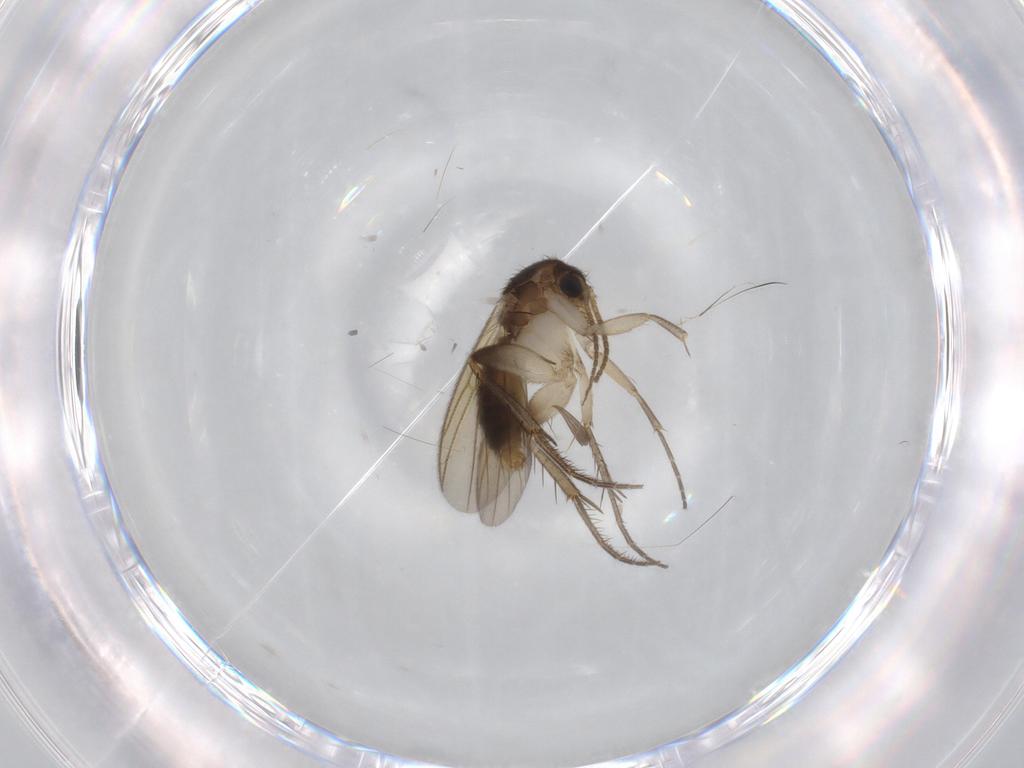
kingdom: Animalia
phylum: Arthropoda
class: Insecta
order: Diptera
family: Mycetophilidae
